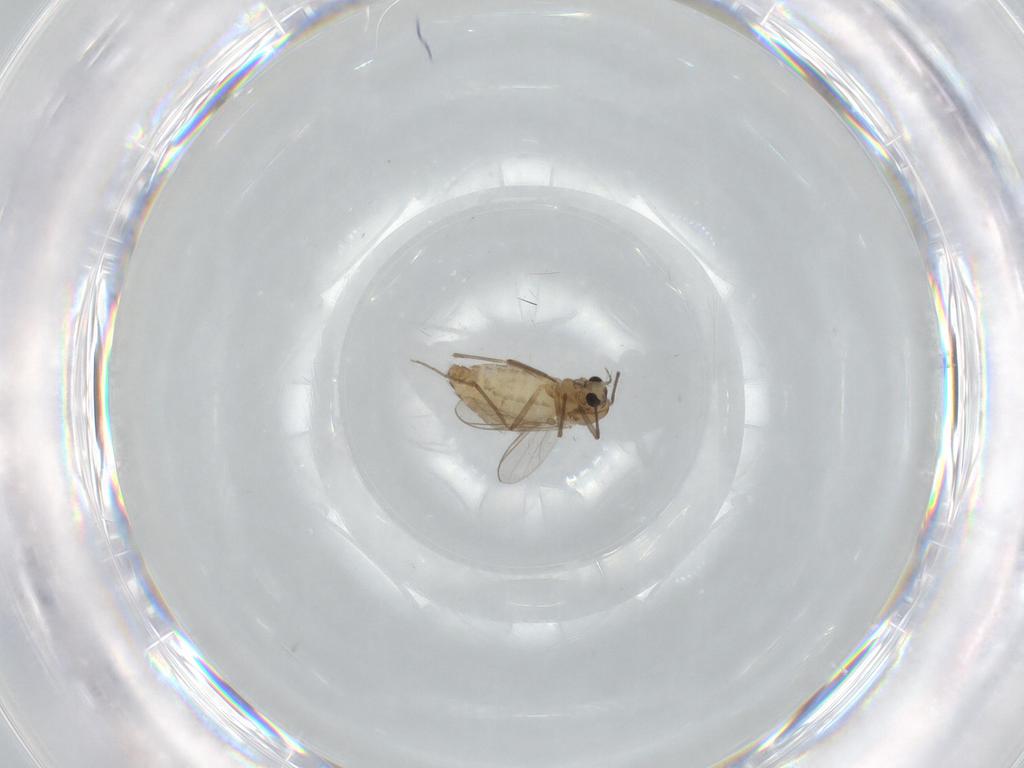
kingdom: Animalia
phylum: Arthropoda
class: Insecta
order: Diptera
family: Chironomidae
